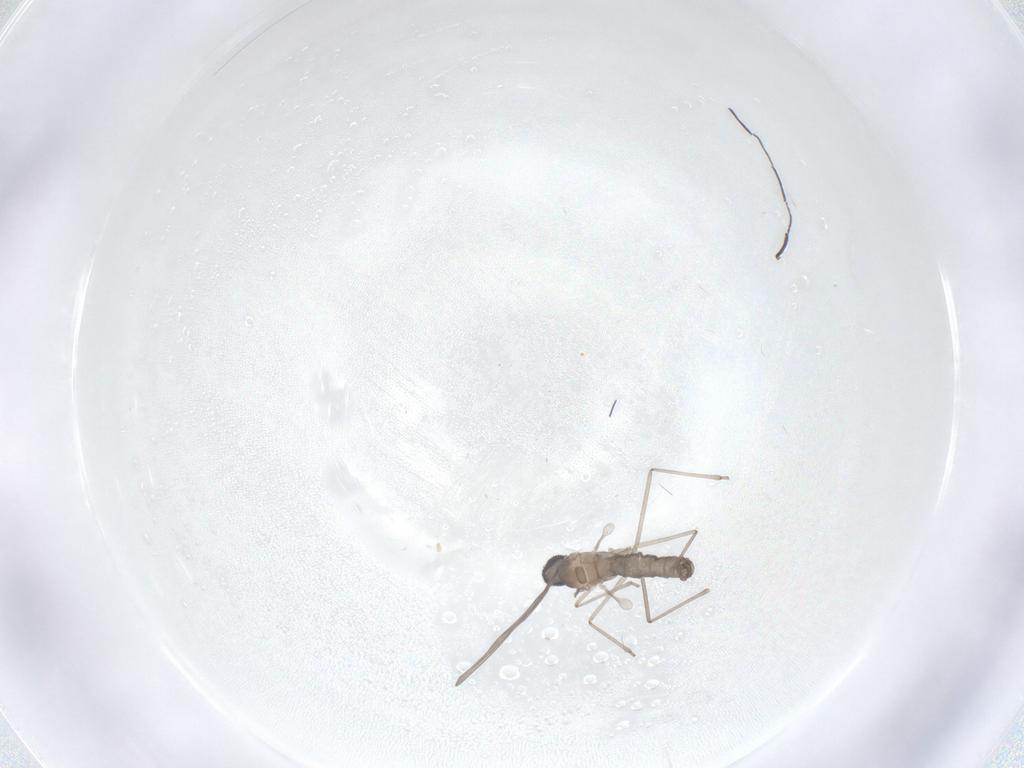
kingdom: Animalia
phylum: Arthropoda
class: Insecta
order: Diptera
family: Cecidomyiidae
